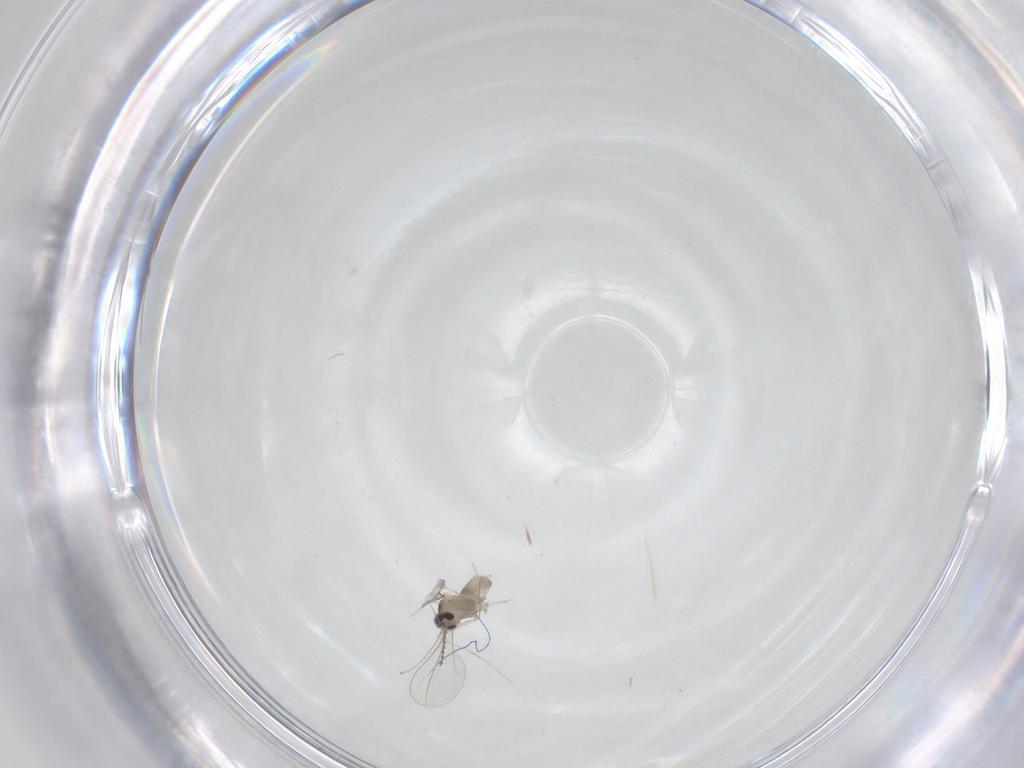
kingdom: Animalia
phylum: Arthropoda
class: Insecta
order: Diptera
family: Cecidomyiidae
